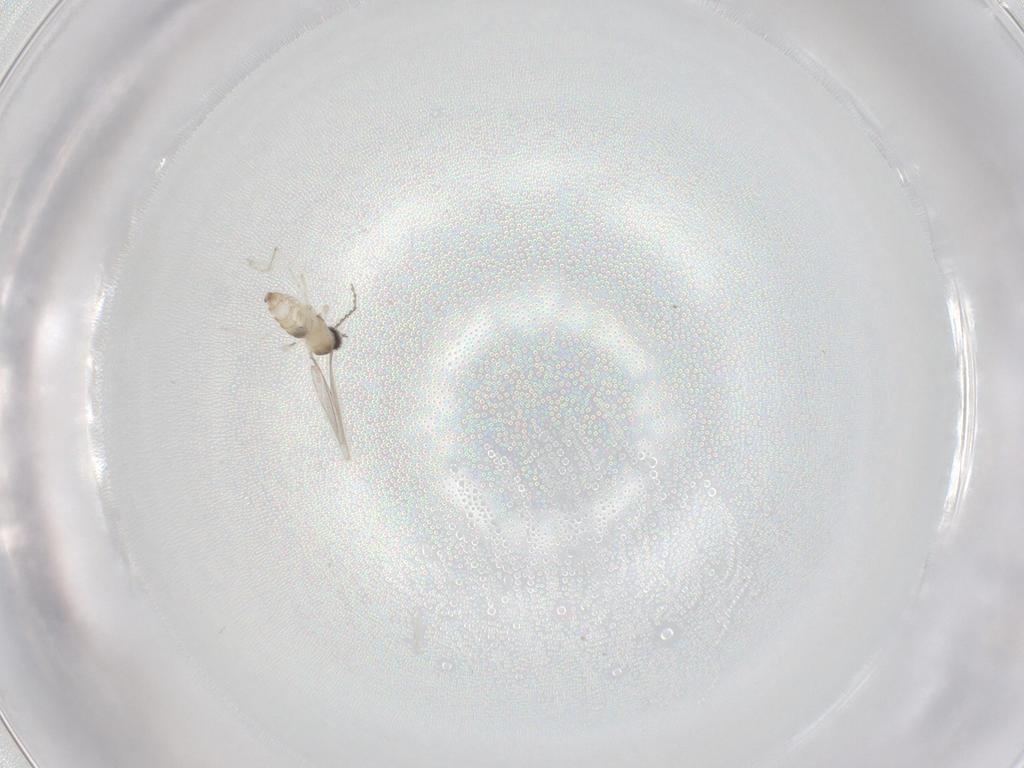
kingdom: Animalia
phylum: Arthropoda
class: Insecta
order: Diptera
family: Cecidomyiidae
